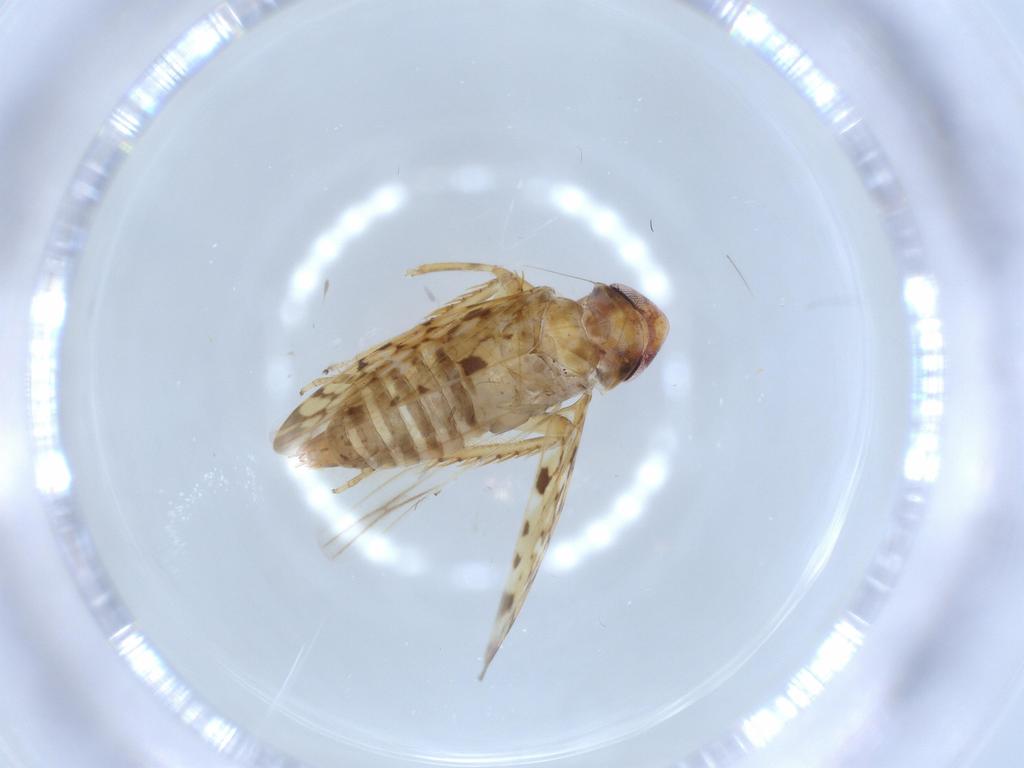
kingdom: Animalia
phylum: Arthropoda
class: Insecta
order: Hemiptera
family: Cicadellidae
